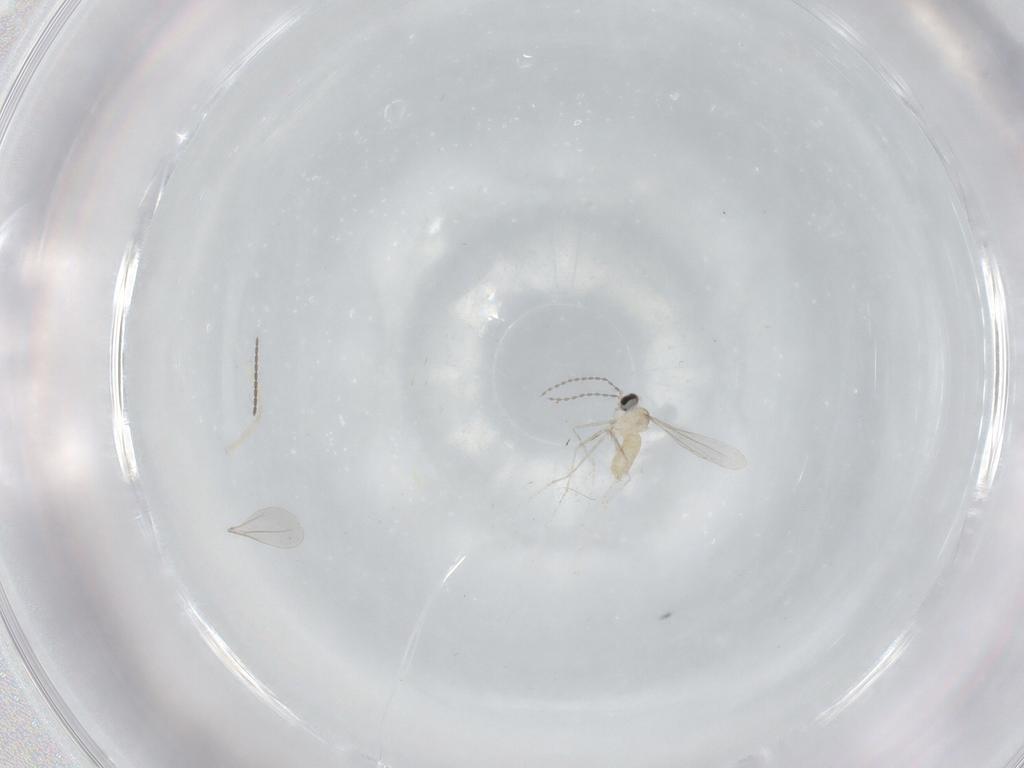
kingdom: Animalia
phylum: Arthropoda
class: Insecta
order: Diptera
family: Cecidomyiidae
